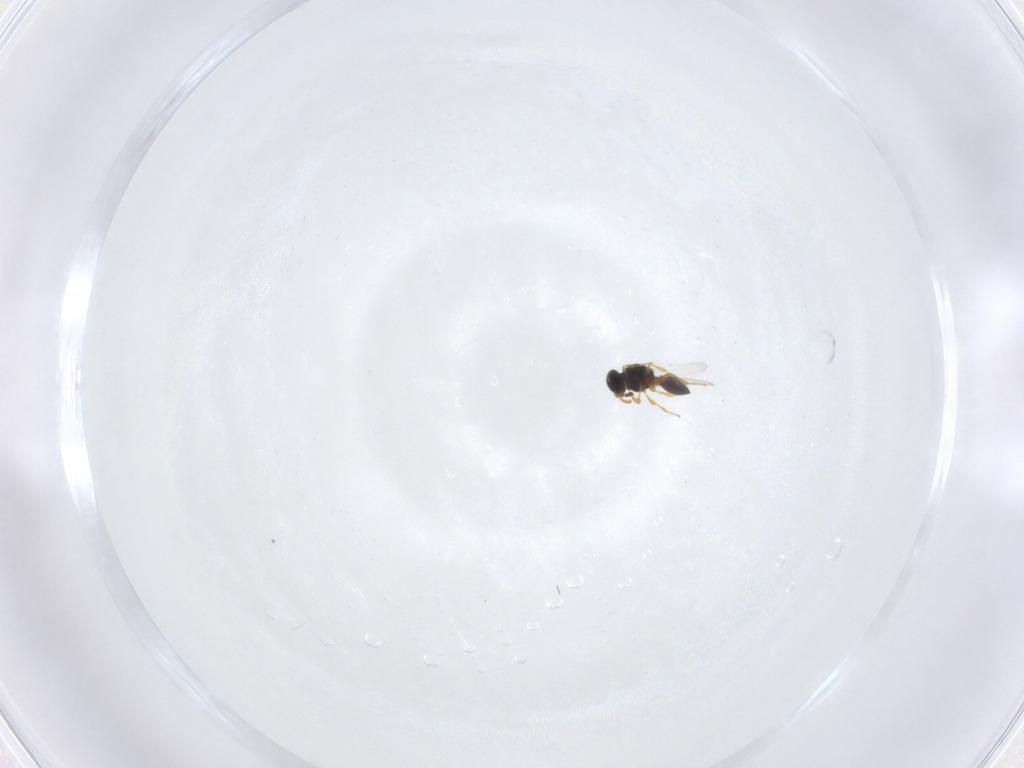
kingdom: Animalia
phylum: Arthropoda
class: Insecta
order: Hymenoptera
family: Platygastridae
